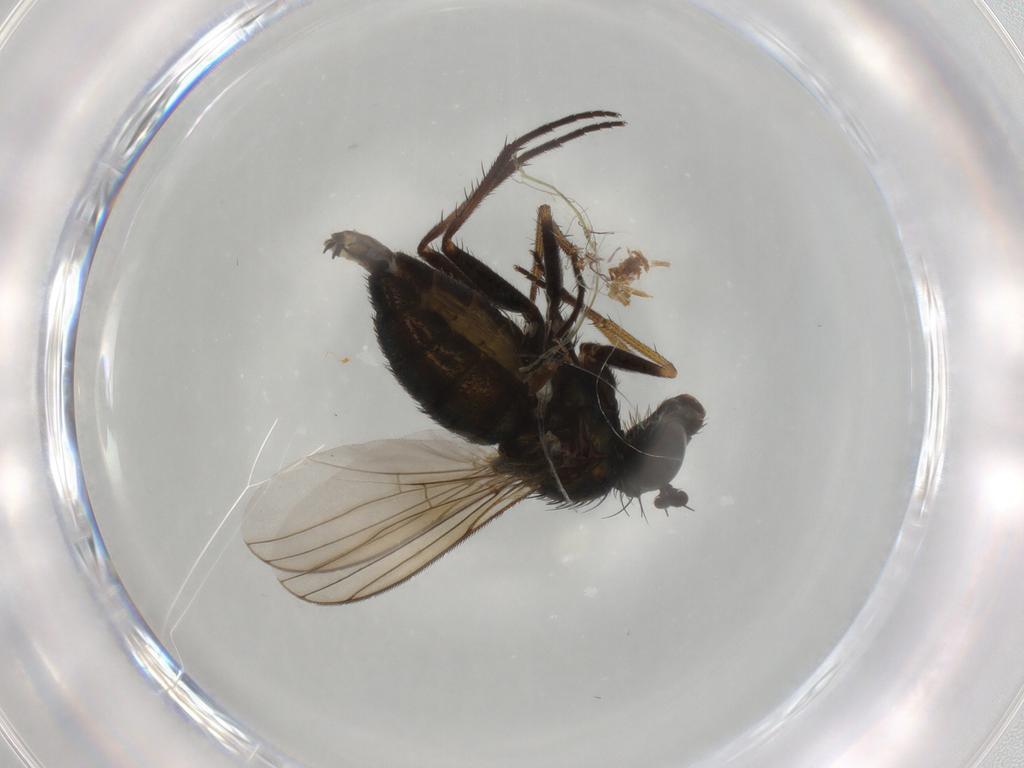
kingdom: Animalia
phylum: Arthropoda
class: Insecta
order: Diptera
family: Dolichopodidae
